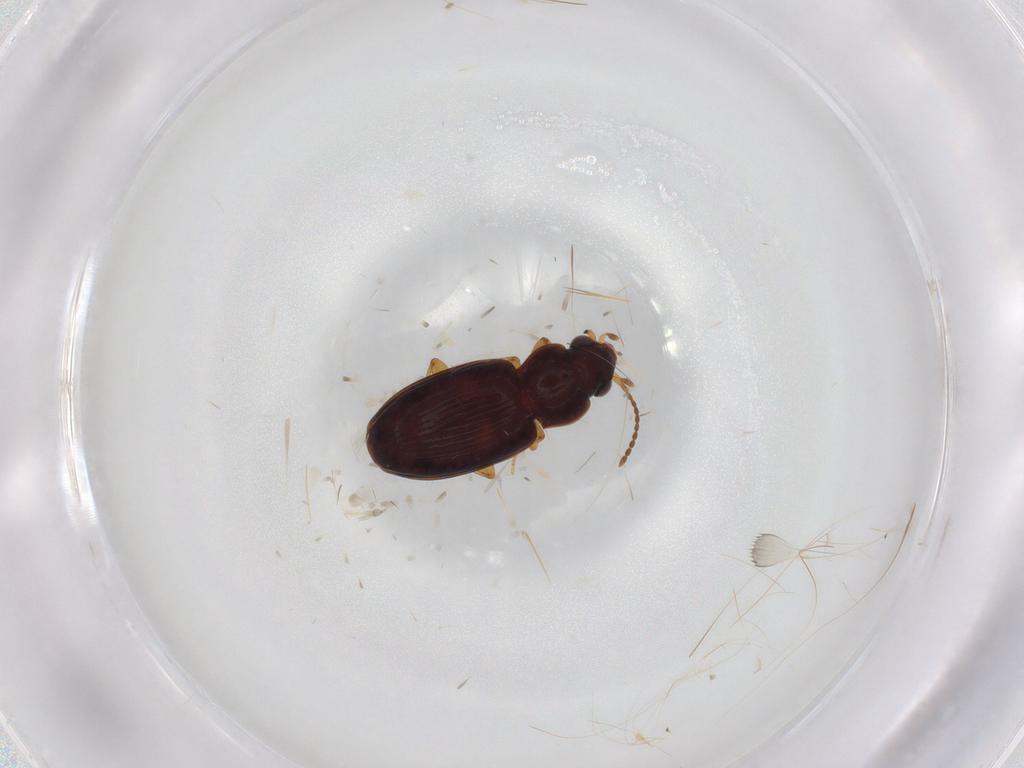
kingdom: Animalia
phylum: Arthropoda
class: Insecta
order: Coleoptera
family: Carabidae
